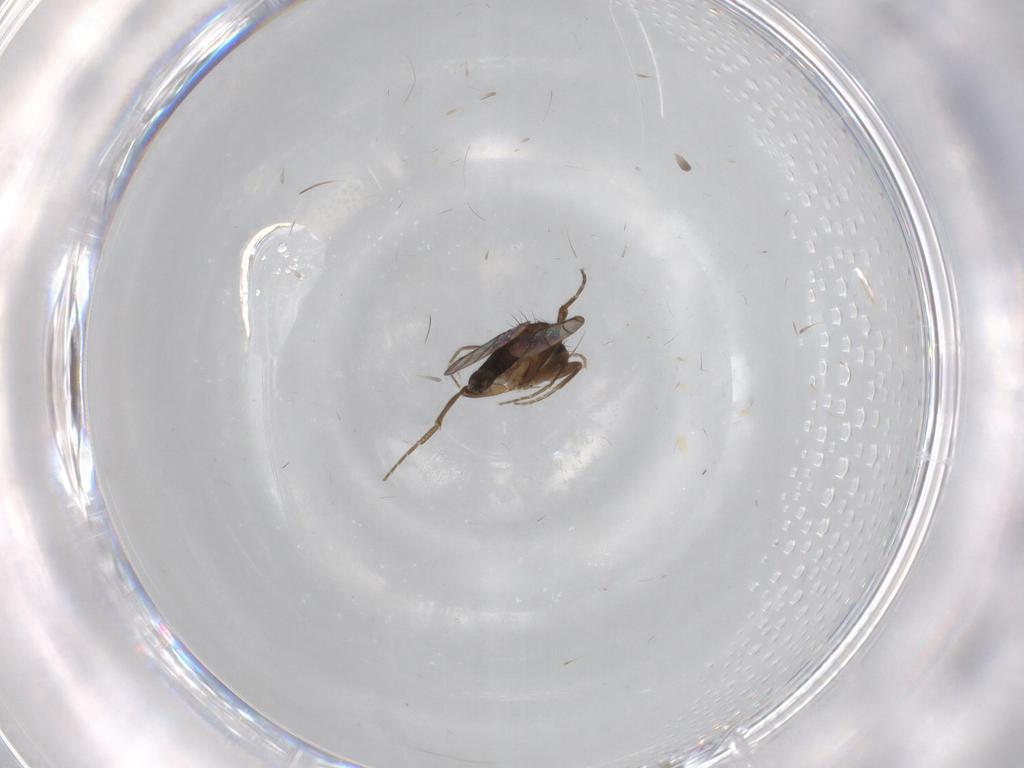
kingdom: Animalia
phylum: Arthropoda
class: Insecta
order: Diptera
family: Phoridae
